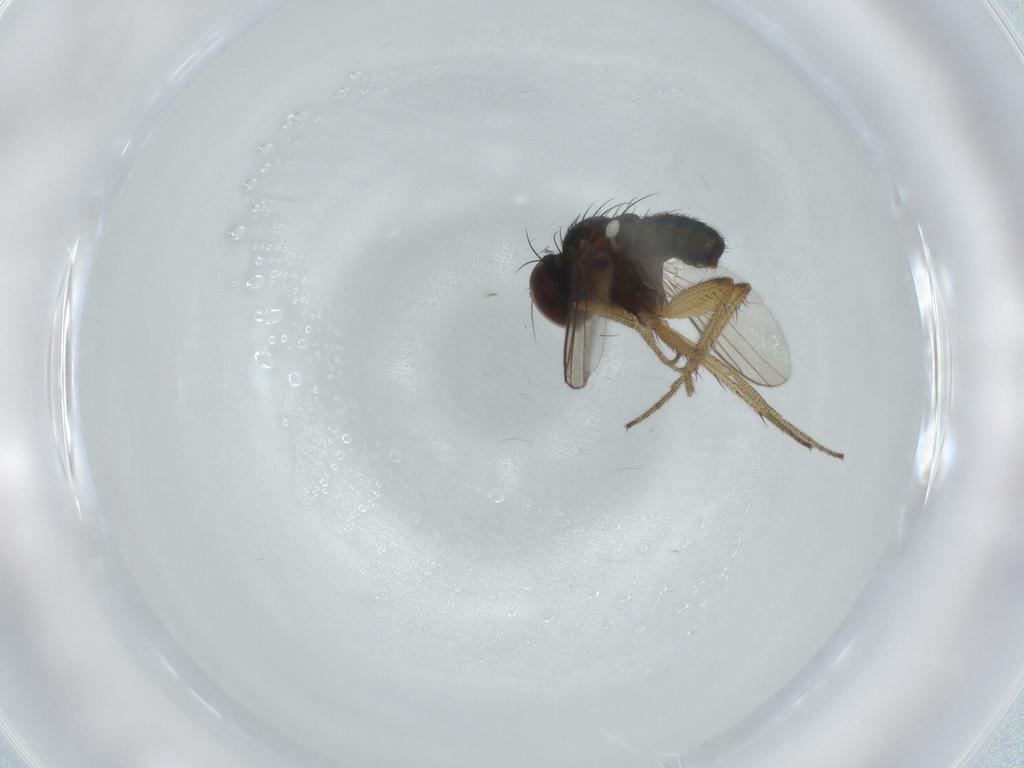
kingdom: Animalia
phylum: Arthropoda
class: Insecta
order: Diptera
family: Dolichopodidae
